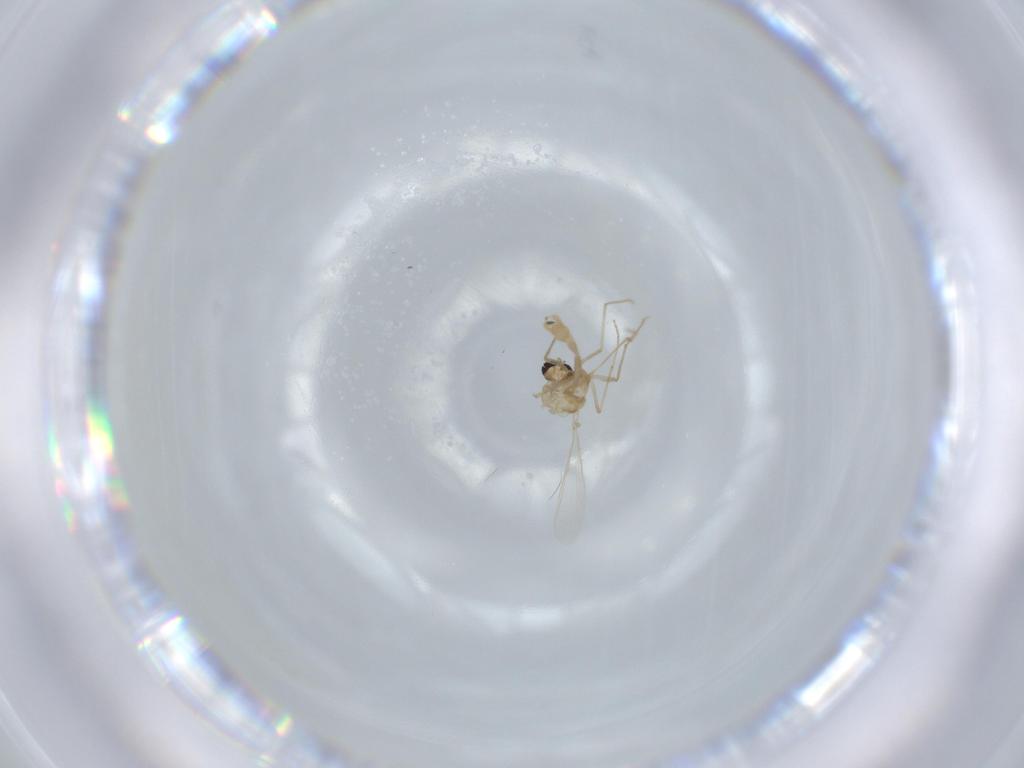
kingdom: Animalia
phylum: Arthropoda
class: Insecta
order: Diptera
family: Chironomidae
